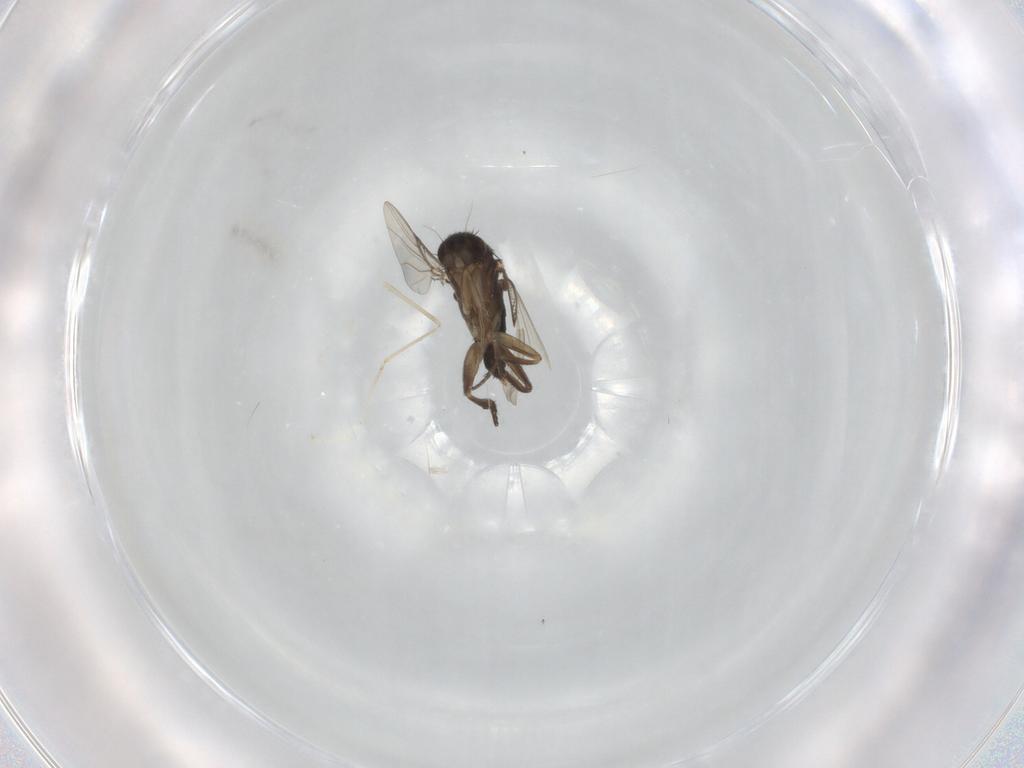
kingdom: Animalia
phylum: Arthropoda
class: Insecta
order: Diptera
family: Phoridae
